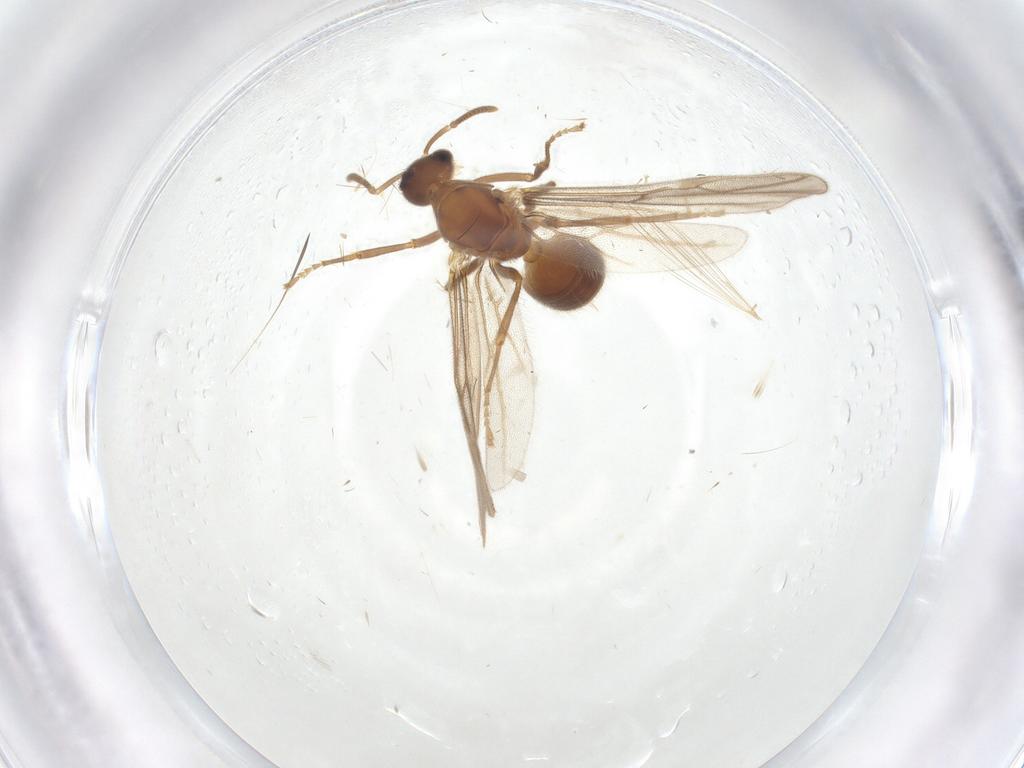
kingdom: Animalia
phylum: Arthropoda
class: Insecta
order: Hymenoptera
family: Formicidae
